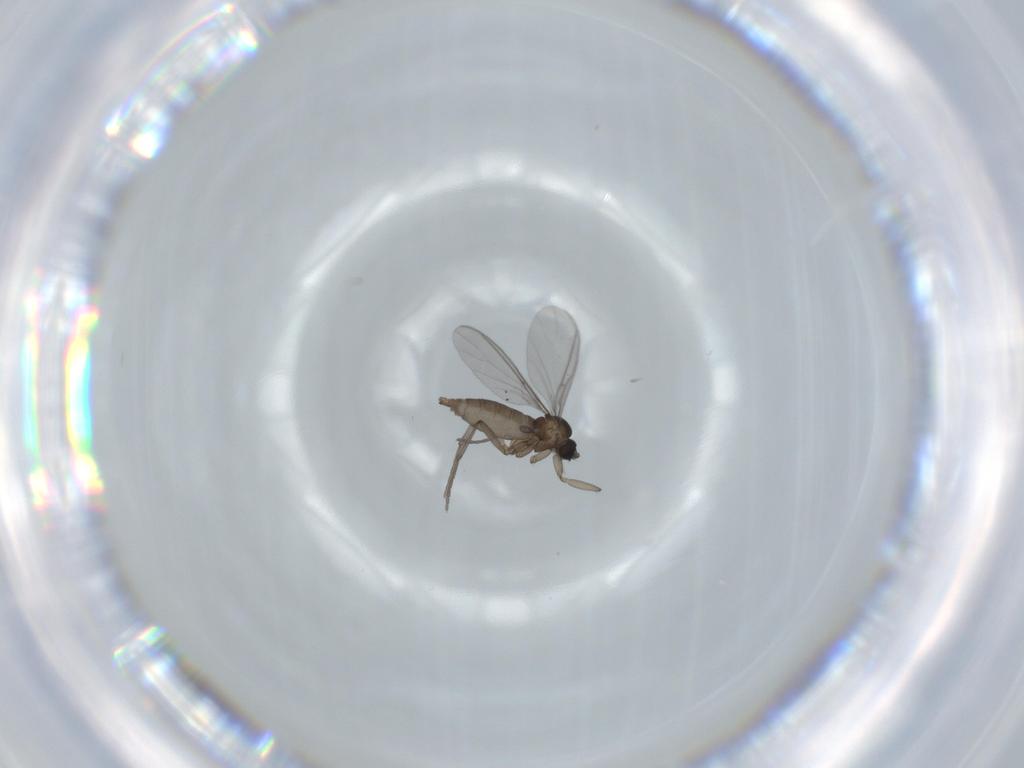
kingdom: Animalia
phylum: Arthropoda
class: Insecta
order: Diptera
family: Sciaridae
